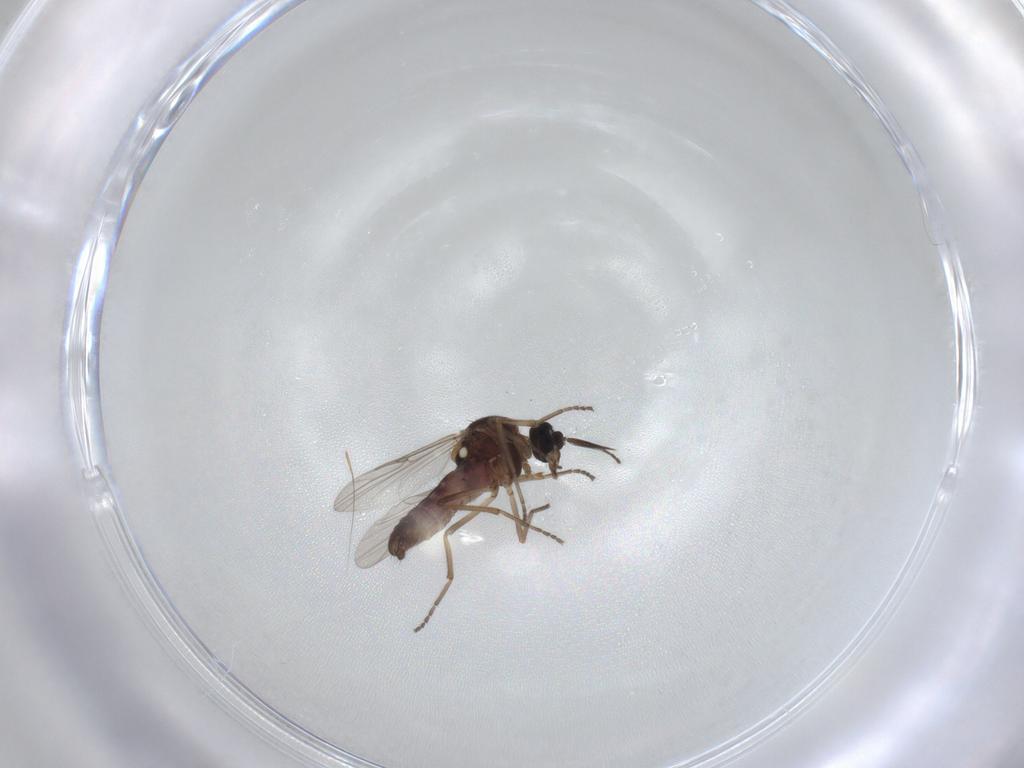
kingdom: Animalia
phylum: Arthropoda
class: Insecta
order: Diptera
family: Ceratopogonidae
